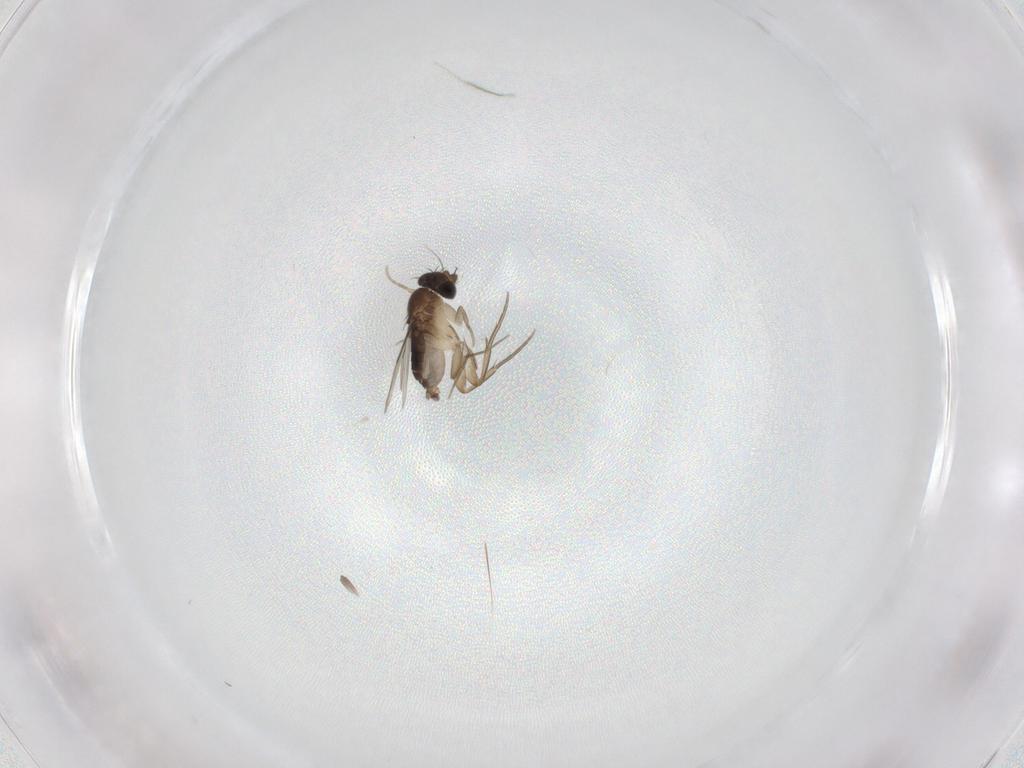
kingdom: Animalia
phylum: Arthropoda
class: Insecta
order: Diptera
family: Phoridae
